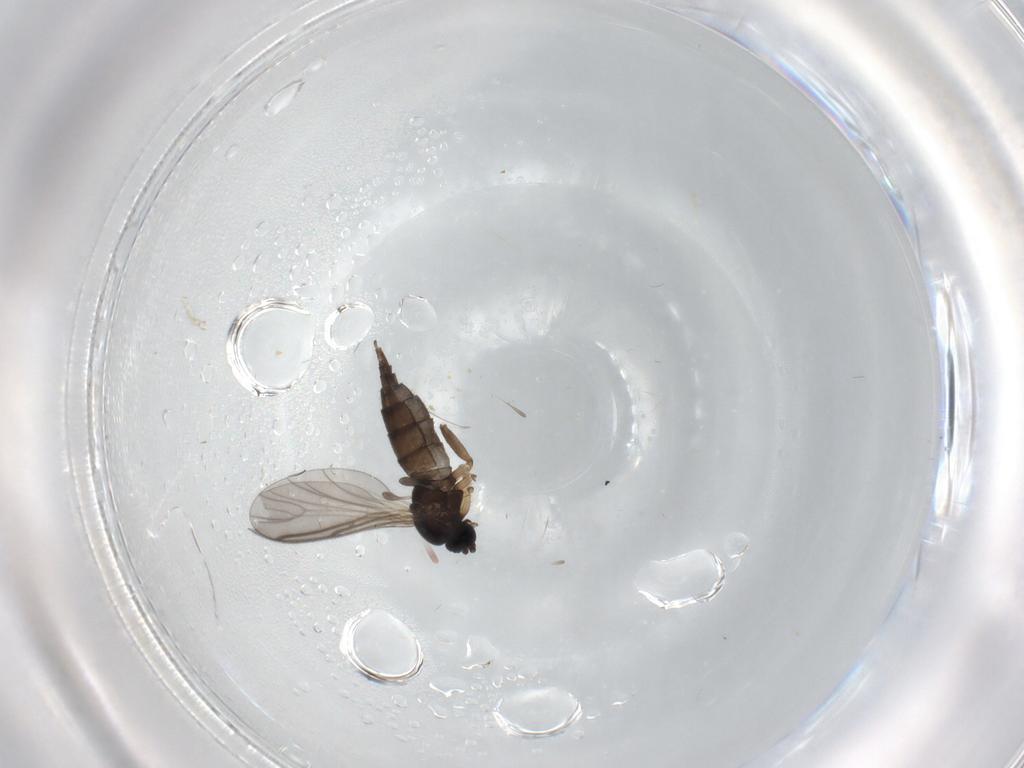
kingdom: Animalia
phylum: Arthropoda
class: Insecta
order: Diptera
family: Sciaridae
